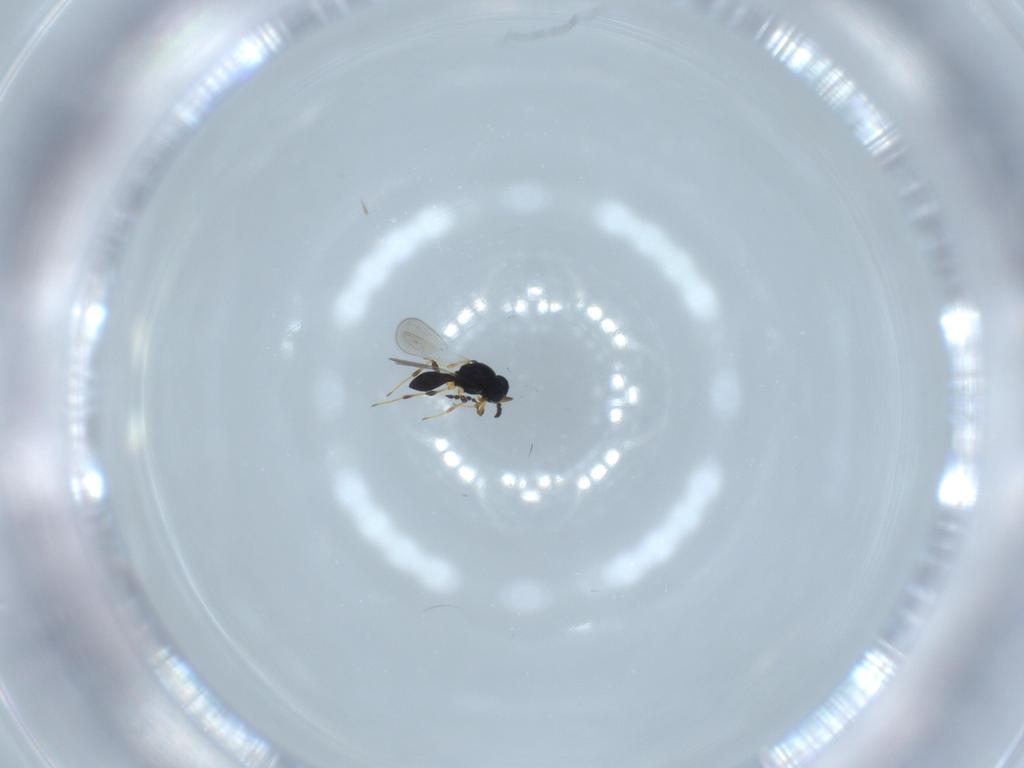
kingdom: Animalia
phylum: Arthropoda
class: Insecta
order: Hymenoptera
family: Platygastridae
